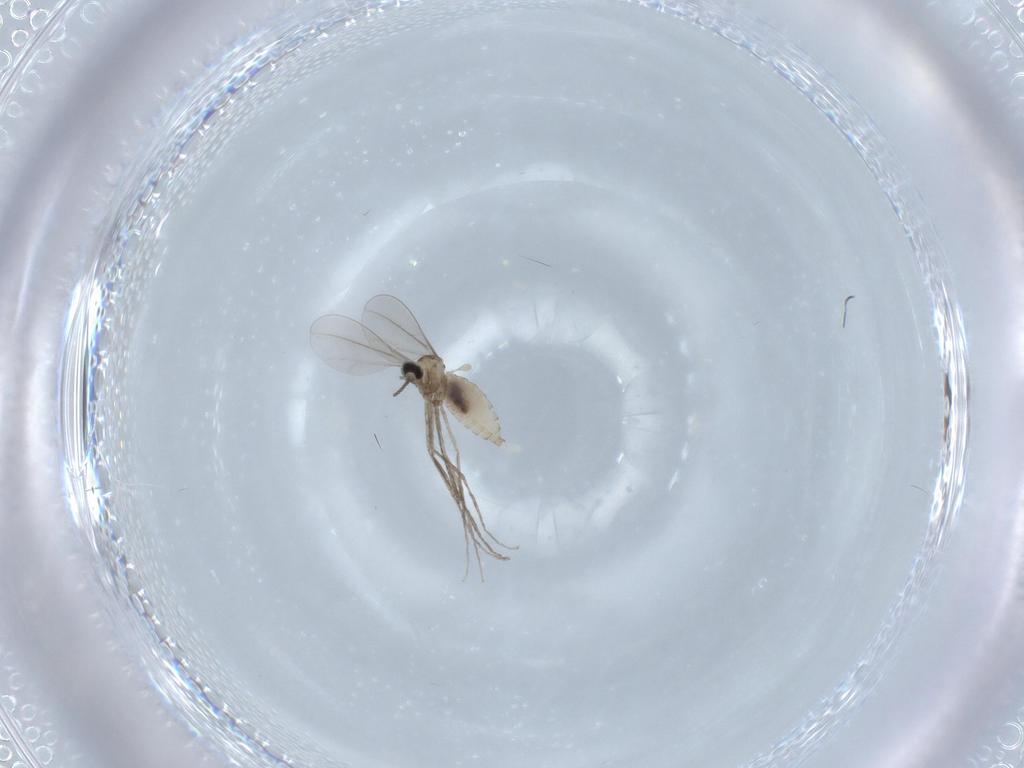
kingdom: Animalia
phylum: Arthropoda
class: Insecta
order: Diptera
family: Cecidomyiidae
